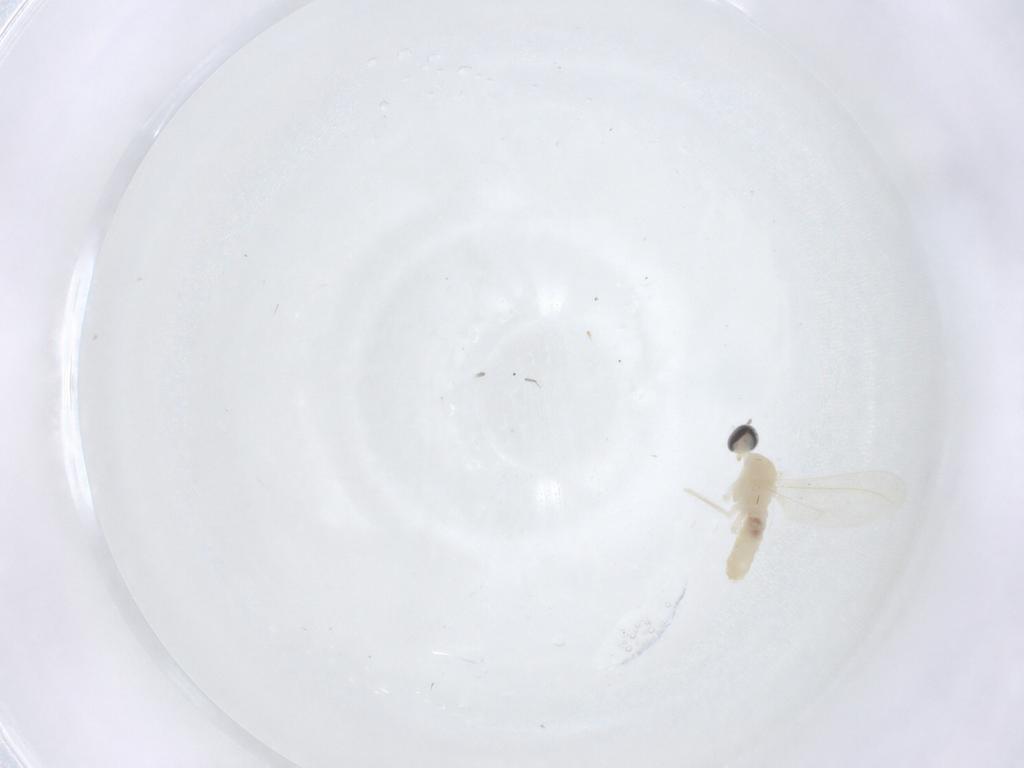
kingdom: Animalia
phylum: Arthropoda
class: Insecta
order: Diptera
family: Cecidomyiidae
